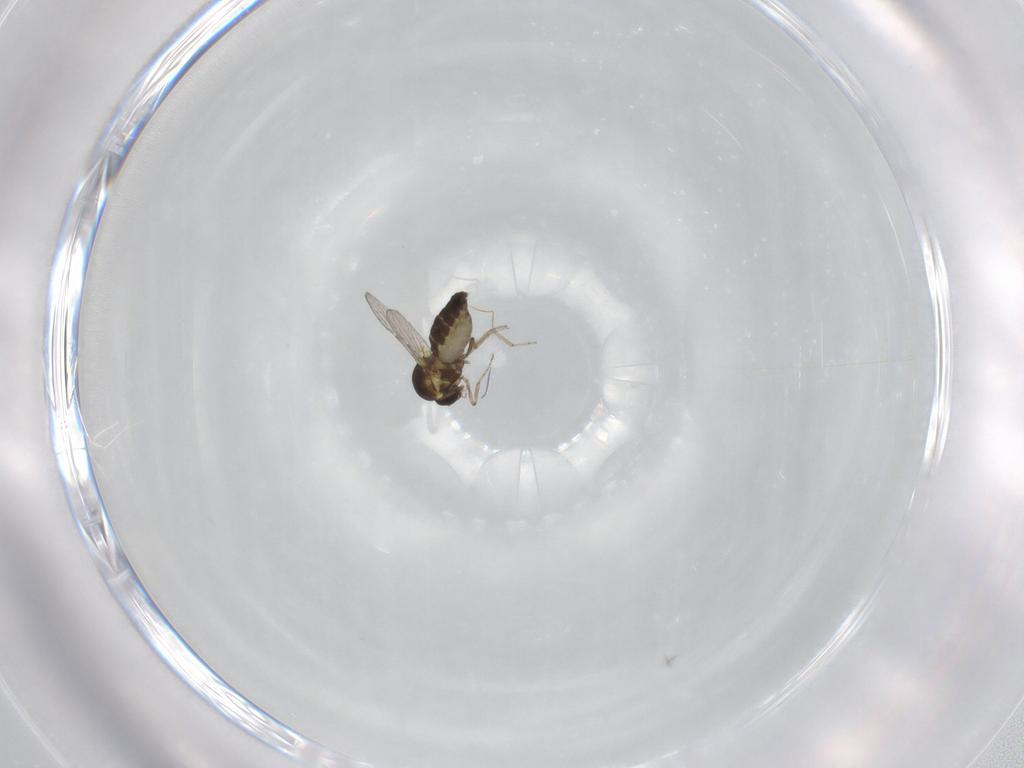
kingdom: Animalia
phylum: Arthropoda
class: Insecta
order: Diptera
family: Ceratopogonidae
